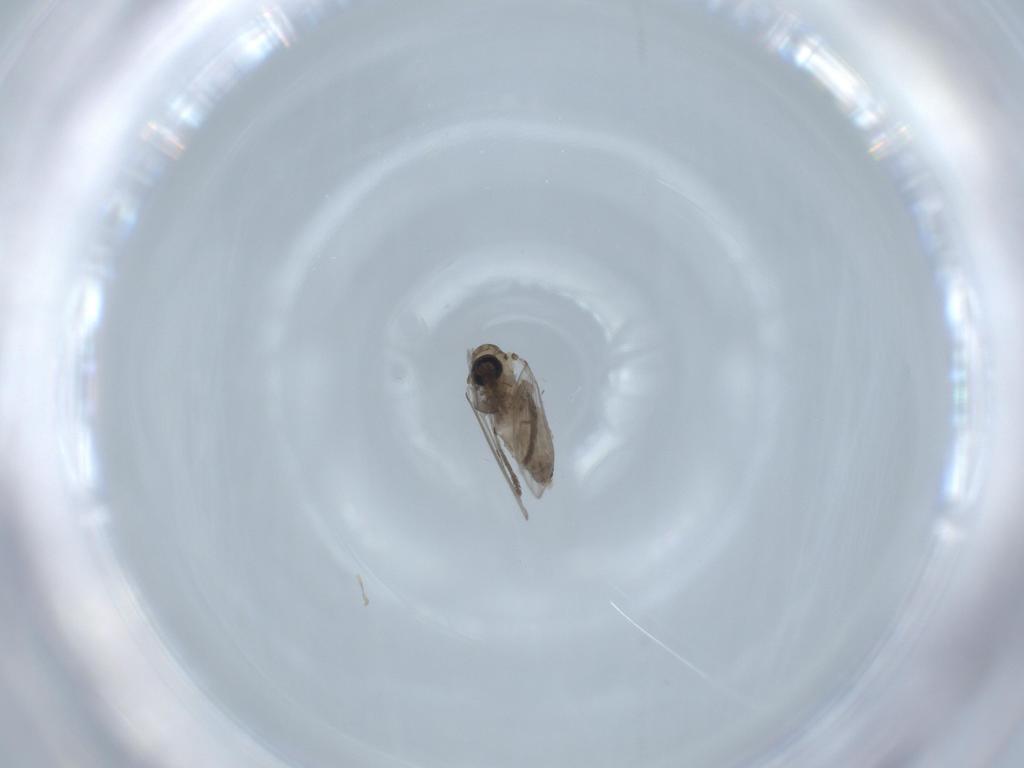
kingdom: Animalia
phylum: Arthropoda
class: Insecta
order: Diptera
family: Psychodidae
